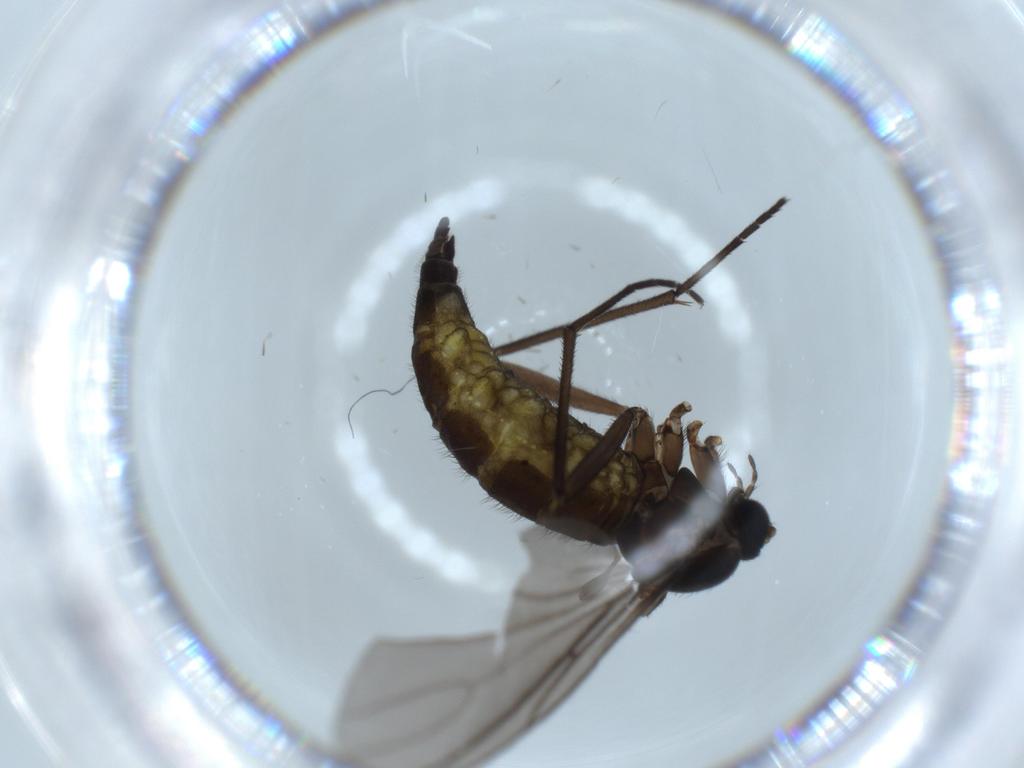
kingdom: Animalia
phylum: Arthropoda
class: Insecta
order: Diptera
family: Sciaridae
